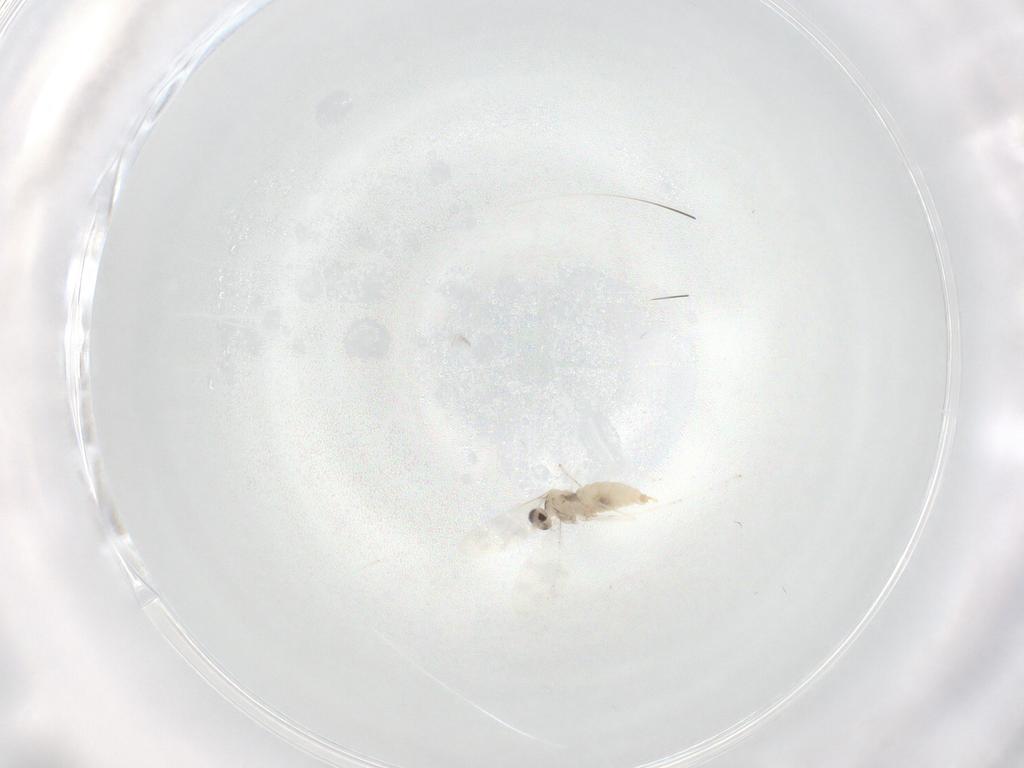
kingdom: Animalia
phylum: Arthropoda
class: Insecta
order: Diptera
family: Cecidomyiidae
